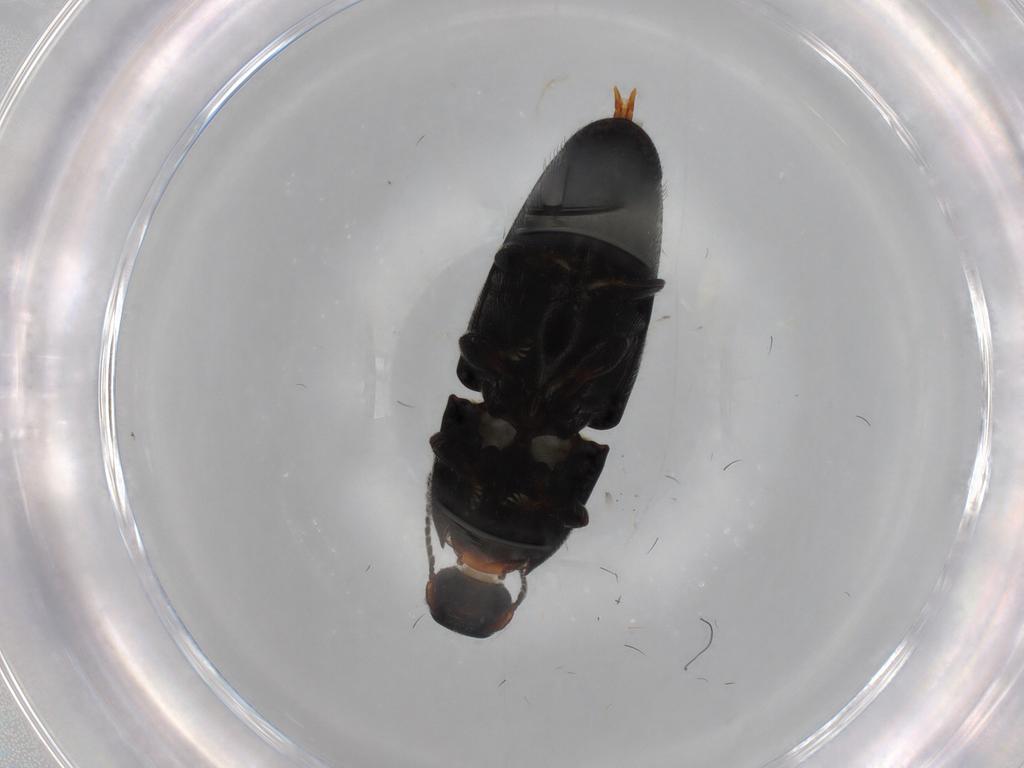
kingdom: Animalia
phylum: Arthropoda
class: Insecta
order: Coleoptera
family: Elateridae
